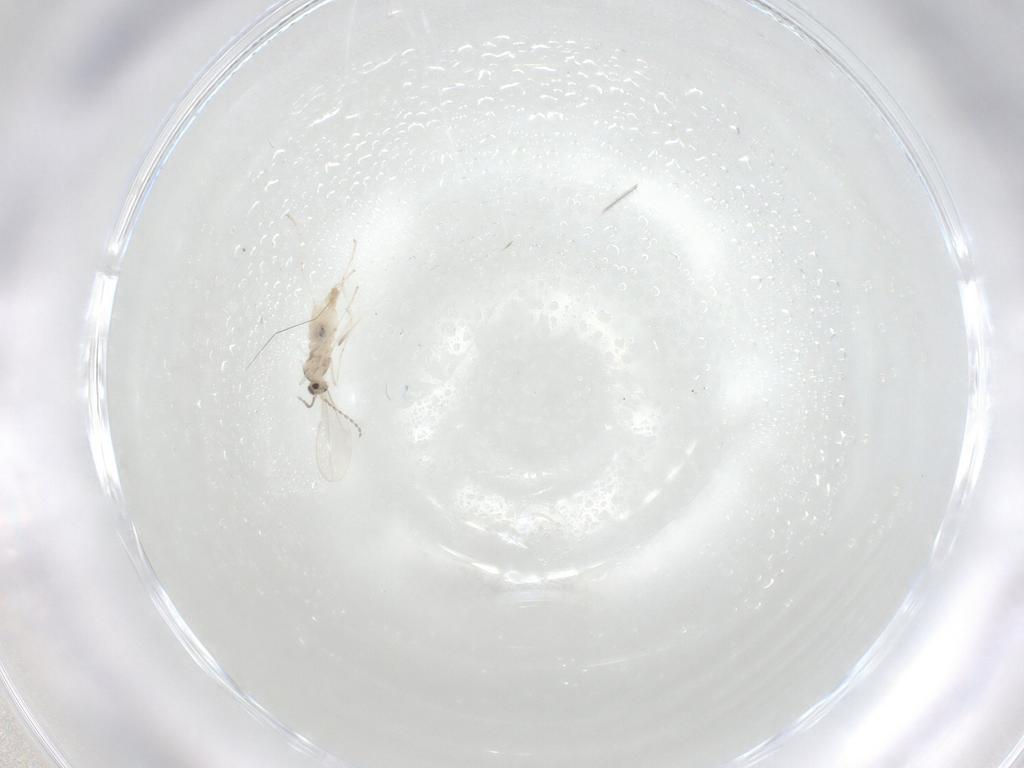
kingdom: Animalia
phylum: Arthropoda
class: Insecta
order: Diptera
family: Cecidomyiidae
